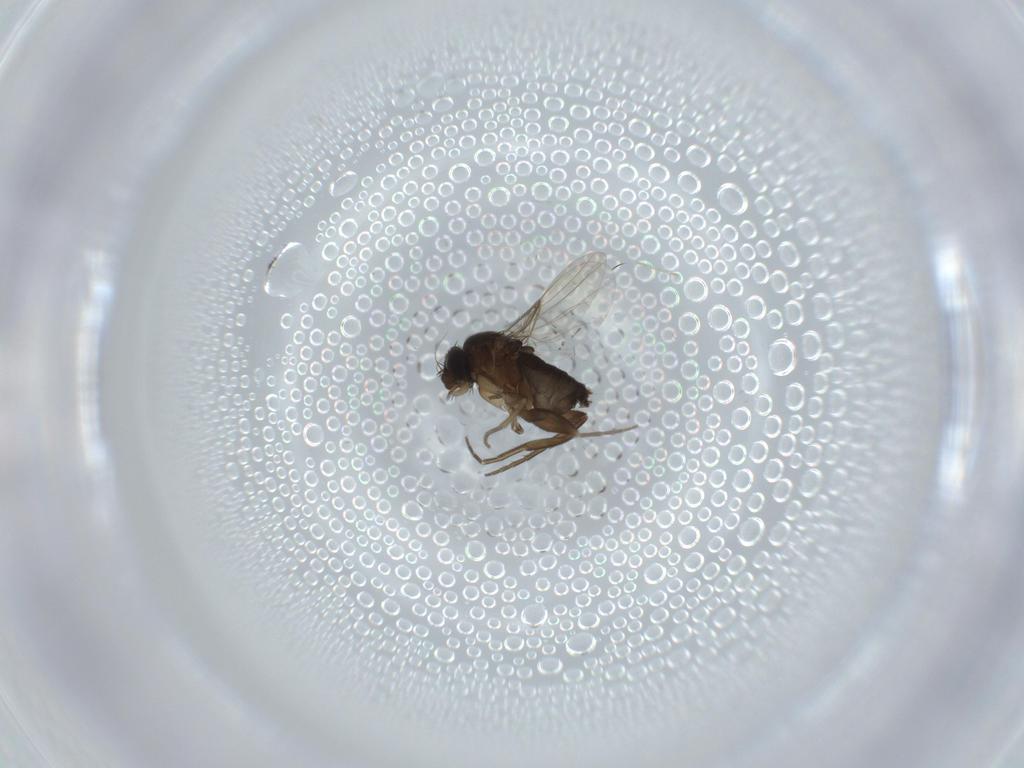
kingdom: Animalia
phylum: Arthropoda
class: Insecta
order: Diptera
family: Phoridae
